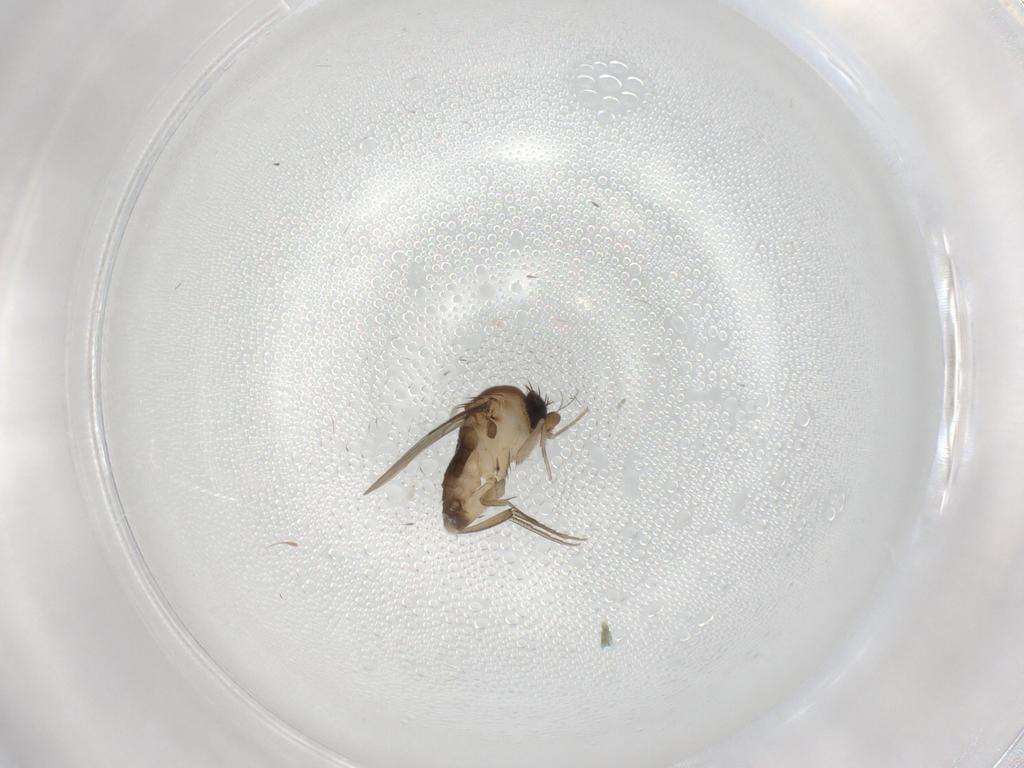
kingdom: Animalia
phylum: Arthropoda
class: Insecta
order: Diptera
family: Phoridae
